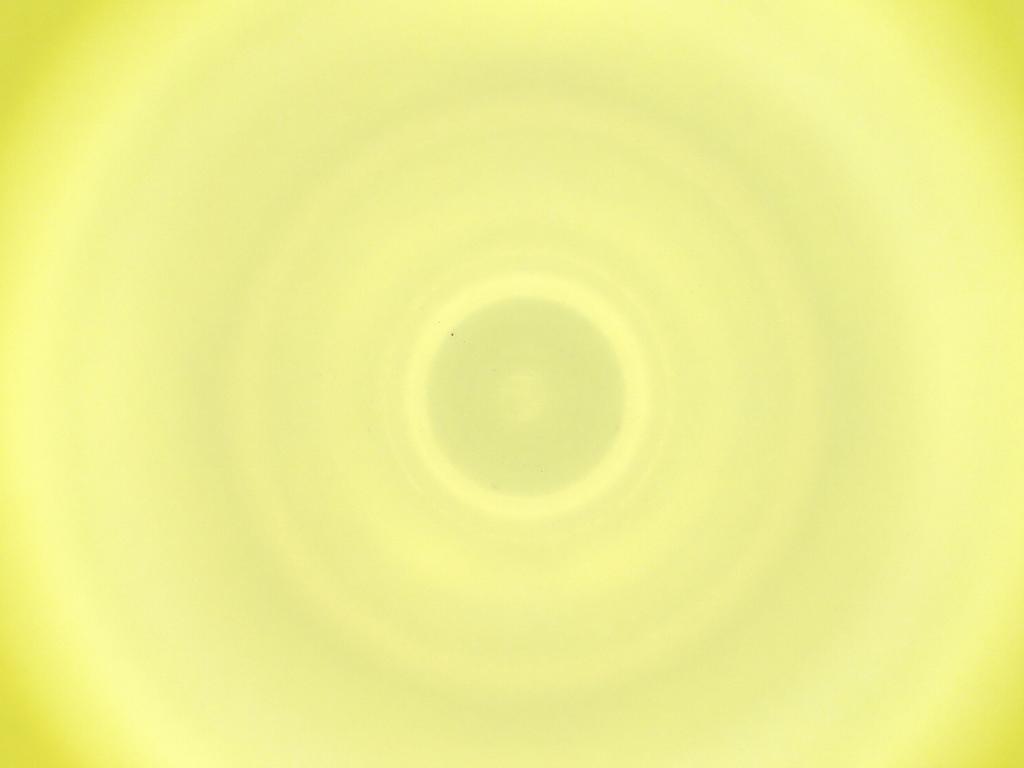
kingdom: Animalia
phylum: Arthropoda
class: Insecta
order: Diptera
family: Cecidomyiidae
